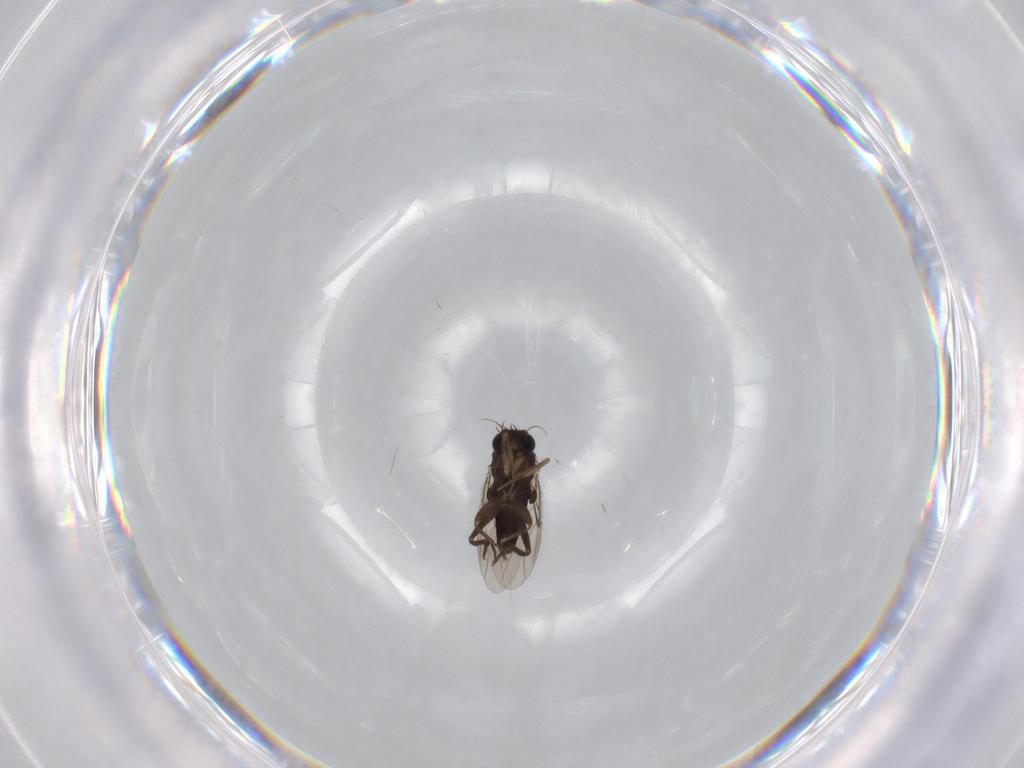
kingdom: Animalia
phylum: Arthropoda
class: Insecta
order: Diptera
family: Phoridae
